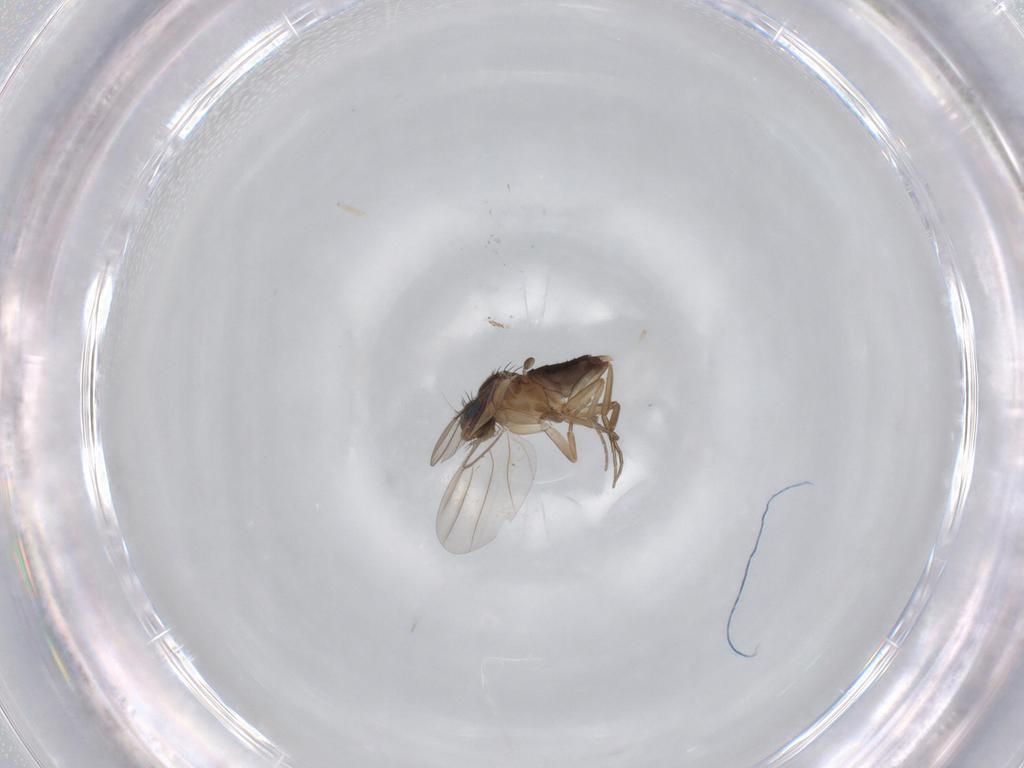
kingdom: Animalia
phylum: Arthropoda
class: Insecta
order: Diptera
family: Phoridae
